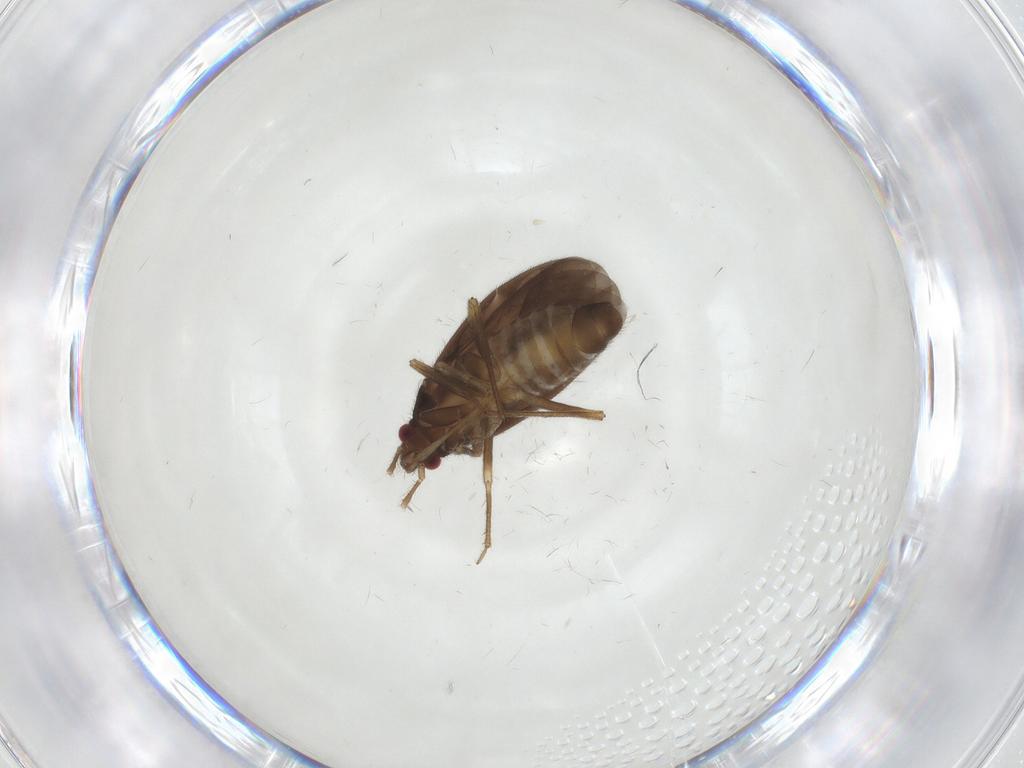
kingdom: Animalia
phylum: Arthropoda
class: Insecta
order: Hemiptera
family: Ceratocombidae
